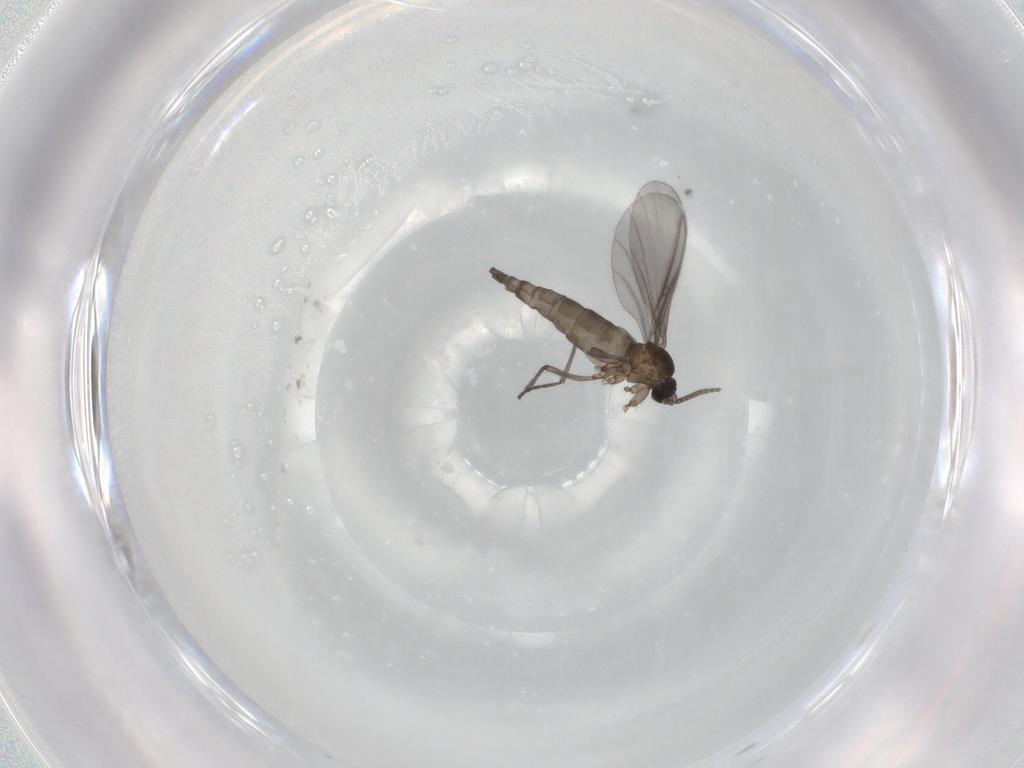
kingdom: Animalia
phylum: Arthropoda
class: Insecta
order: Diptera
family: Sciaridae
